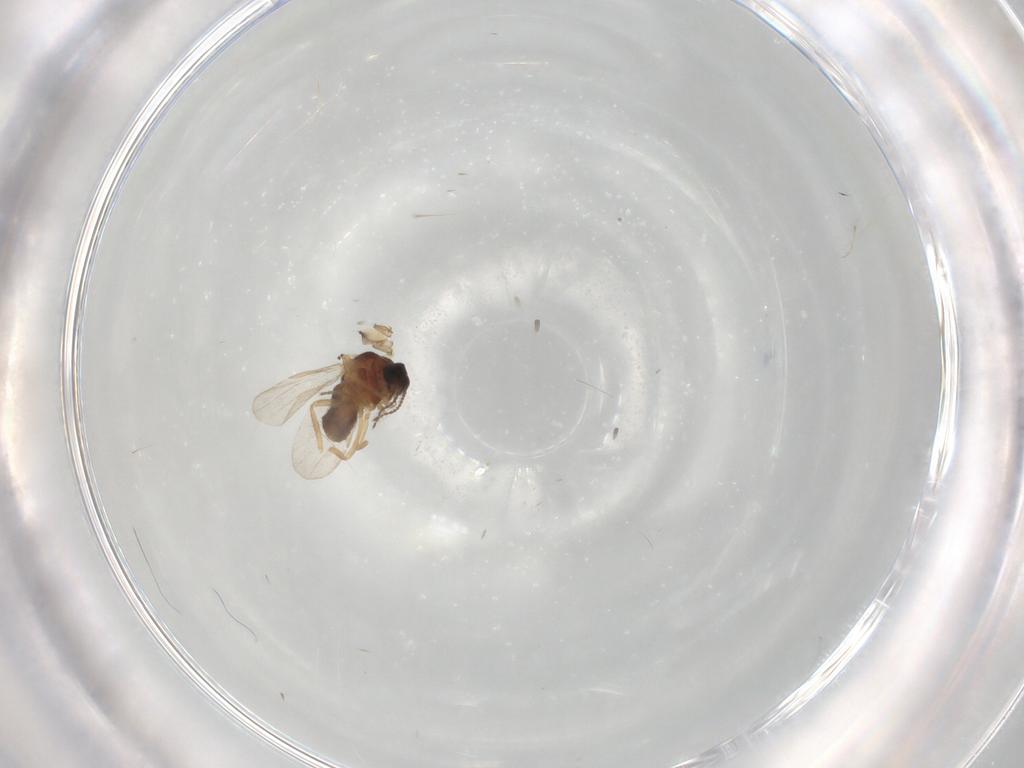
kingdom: Animalia
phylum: Arthropoda
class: Insecta
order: Diptera
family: Ceratopogonidae
